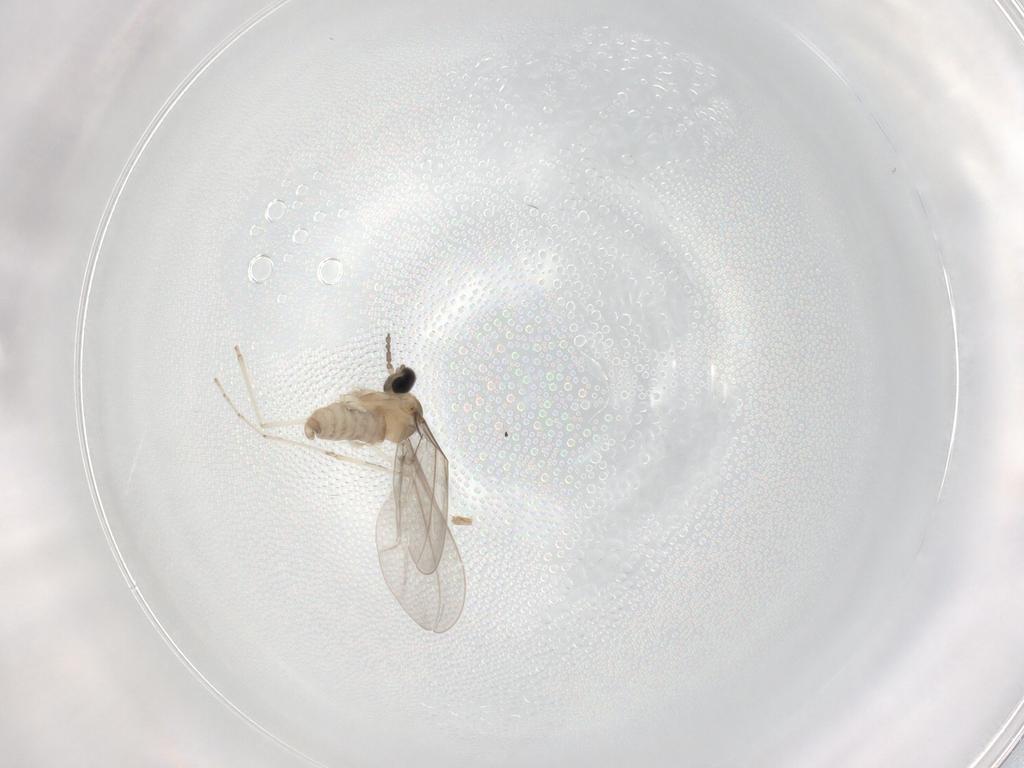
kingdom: Animalia
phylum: Arthropoda
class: Insecta
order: Diptera
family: Cecidomyiidae
